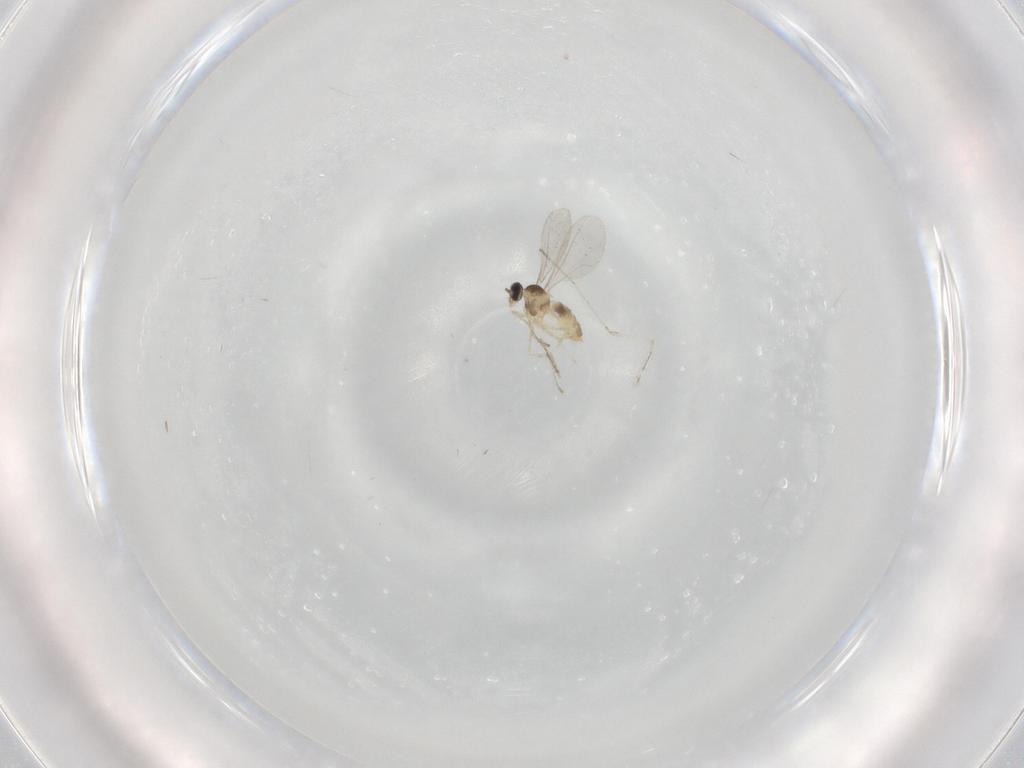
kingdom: Animalia
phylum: Arthropoda
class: Insecta
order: Diptera
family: Cecidomyiidae
